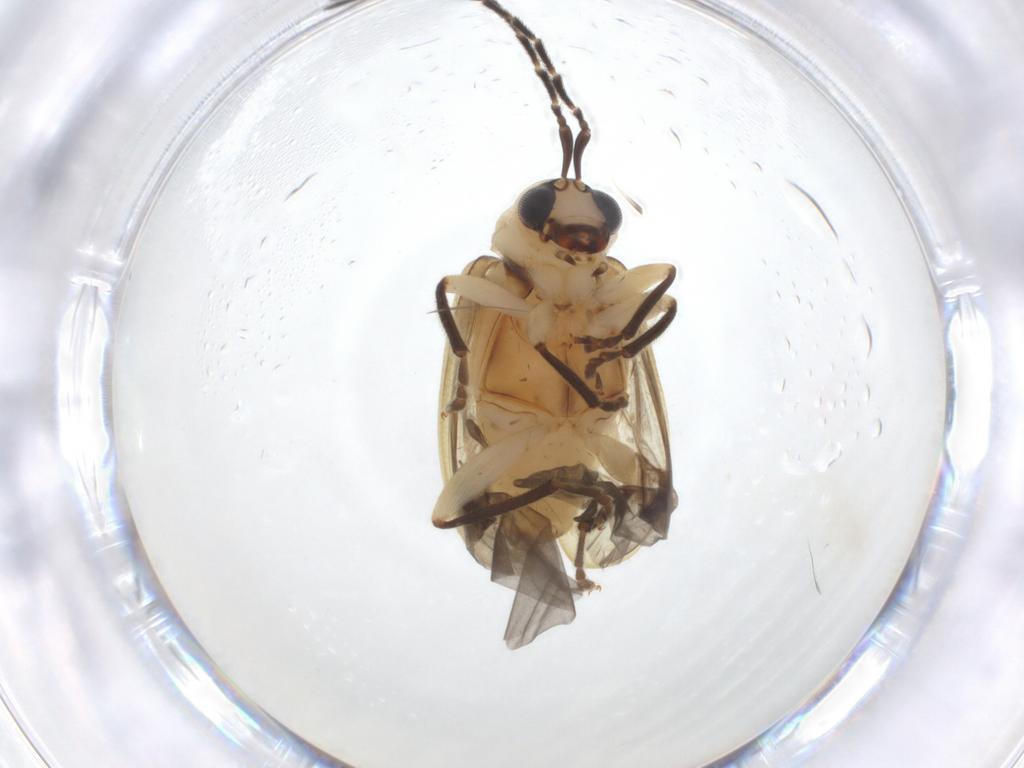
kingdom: Animalia
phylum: Arthropoda
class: Insecta
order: Coleoptera
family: Chrysomelidae
